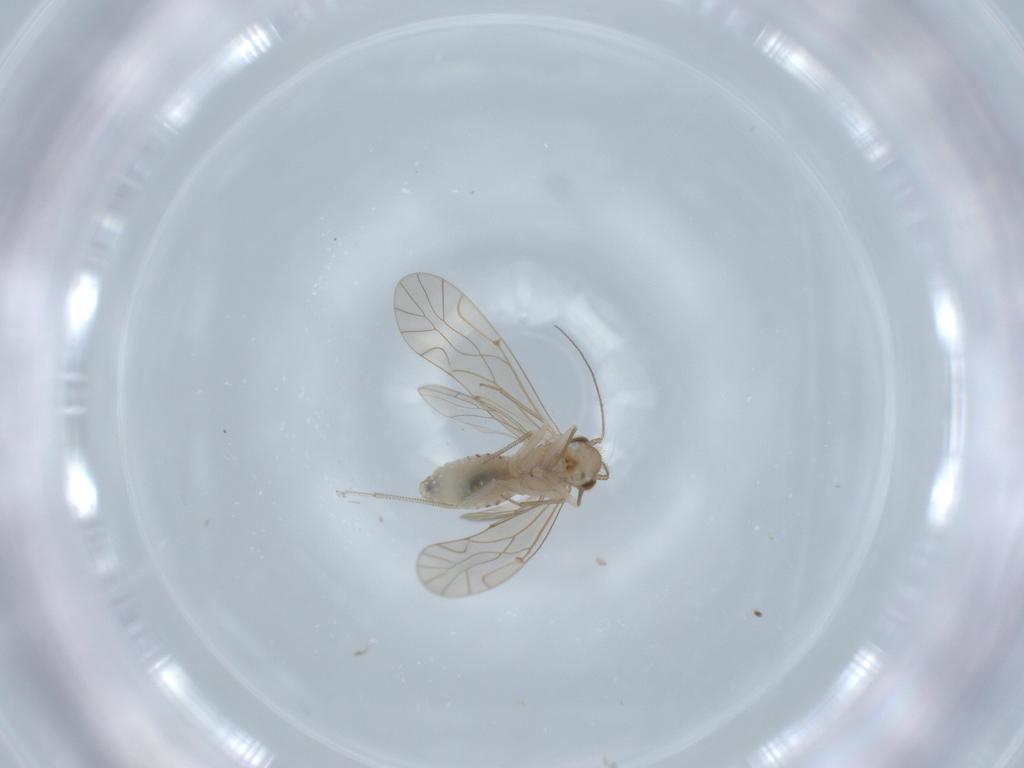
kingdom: Animalia
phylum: Arthropoda
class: Insecta
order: Psocodea
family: Lachesillidae
